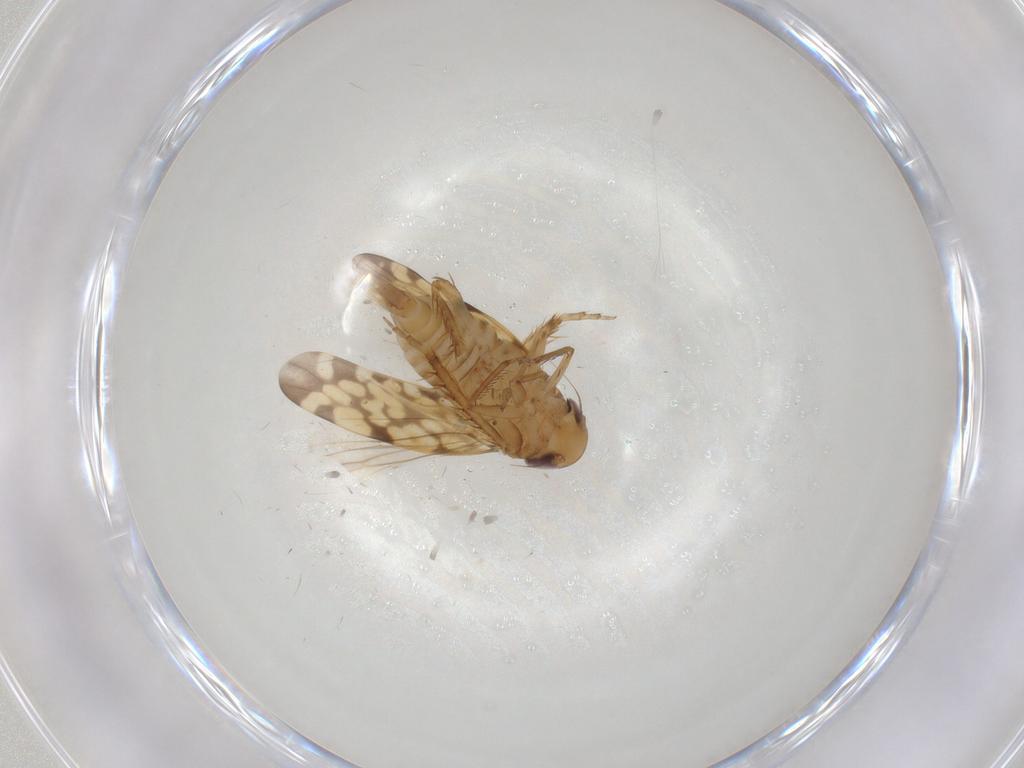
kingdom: Animalia
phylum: Arthropoda
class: Insecta
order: Hemiptera
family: Cicadellidae
